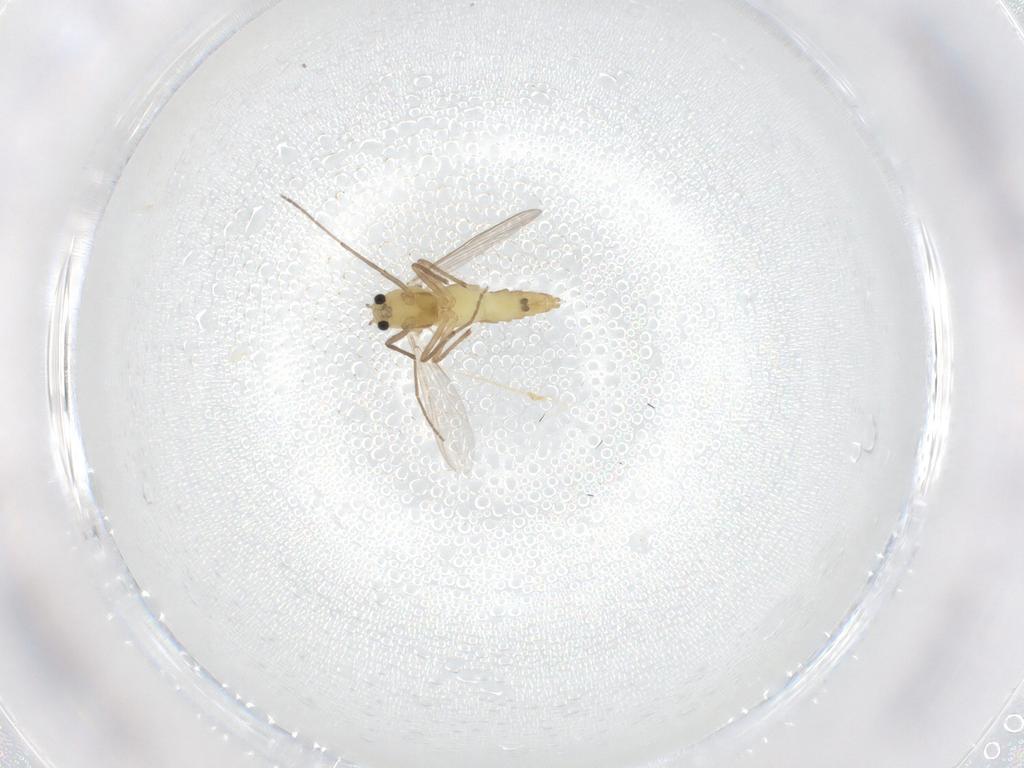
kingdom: Animalia
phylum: Arthropoda
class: Insecta
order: Diptera
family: Chironomidae
